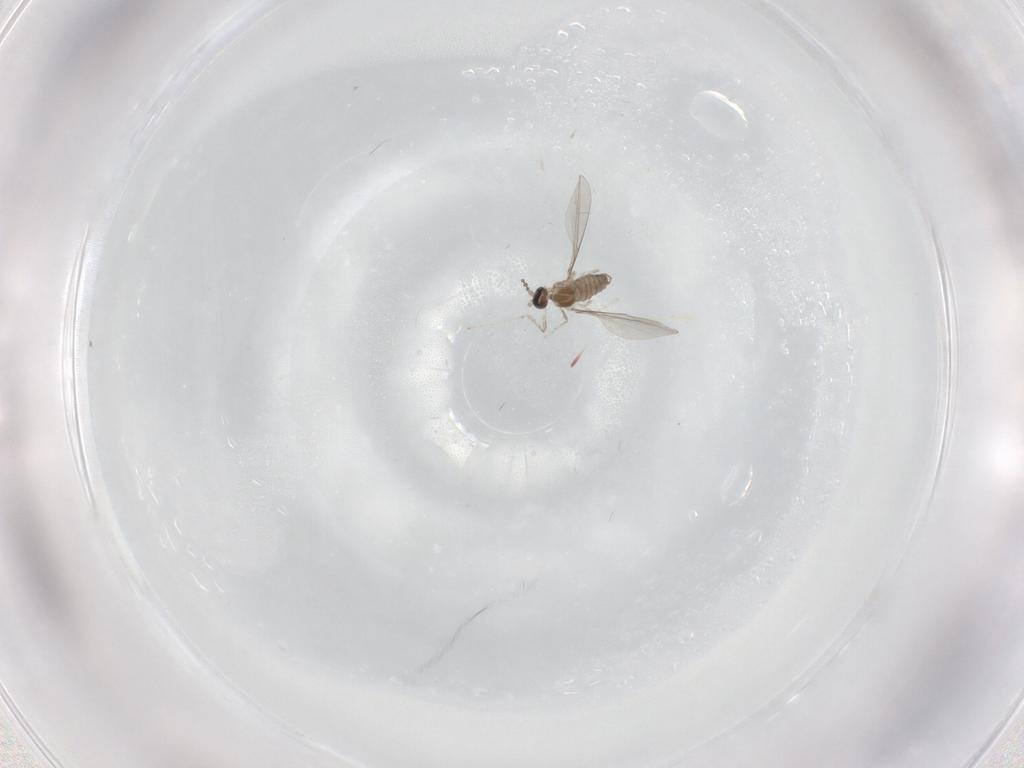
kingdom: Animalia
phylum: Arthropoda
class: Insecta
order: Diptera
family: Cecidomyiidae
